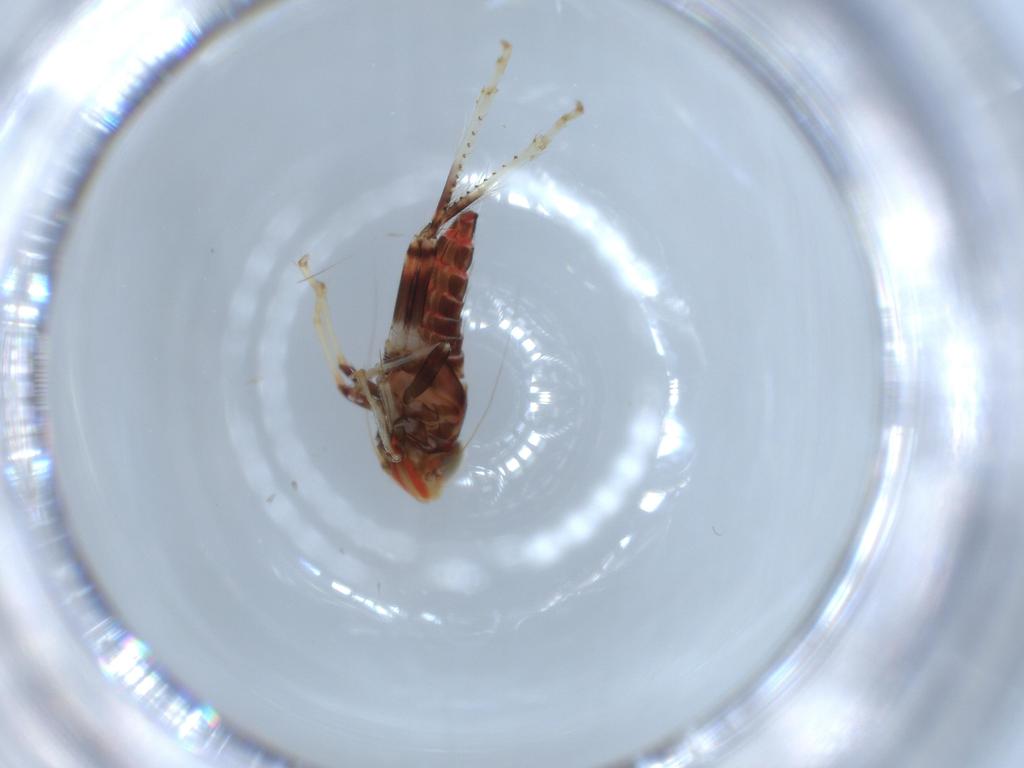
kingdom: Animalia
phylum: Arthropoda
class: Insecta
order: Hemiptera
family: Cicadellidae
